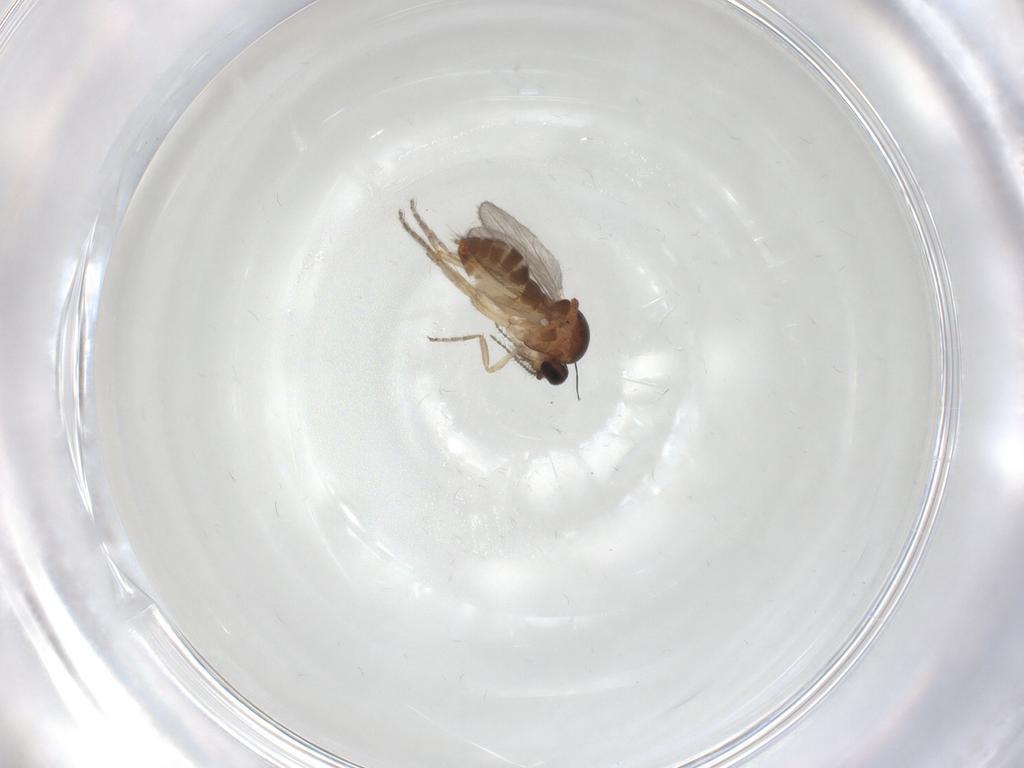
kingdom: Animalia
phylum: Arthropoda
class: Insecta
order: Diptera
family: Ceratopogonidae
